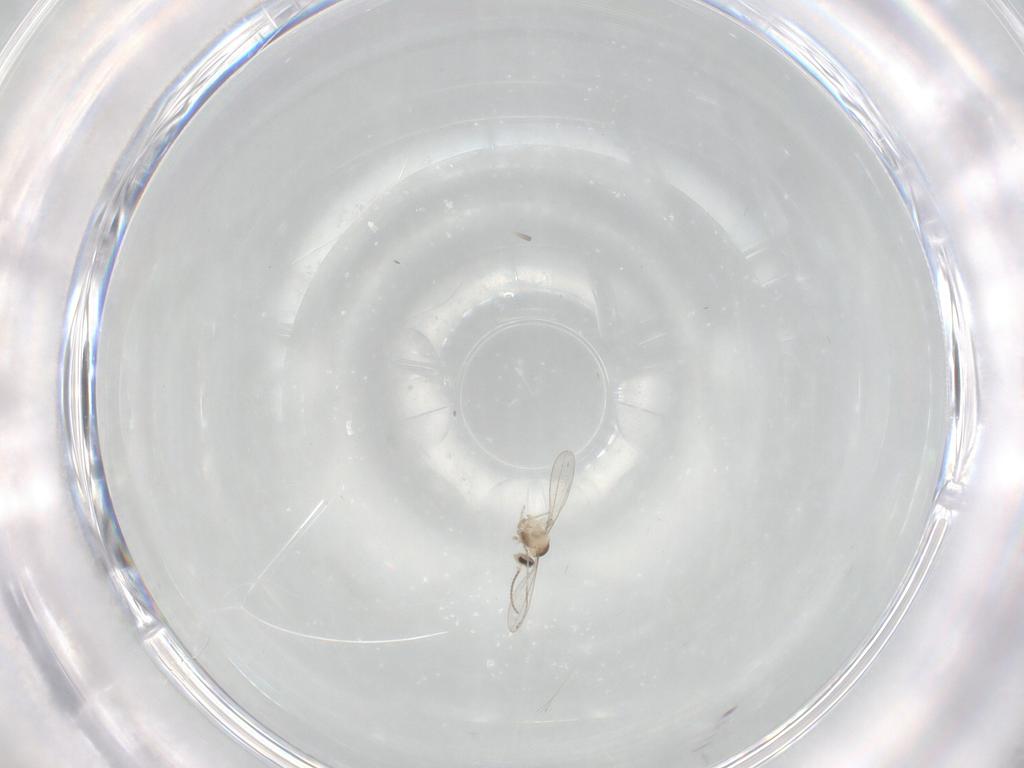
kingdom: Animalia
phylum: Arthropoda
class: Insecta
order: Diptera
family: Cecidomyiidae
